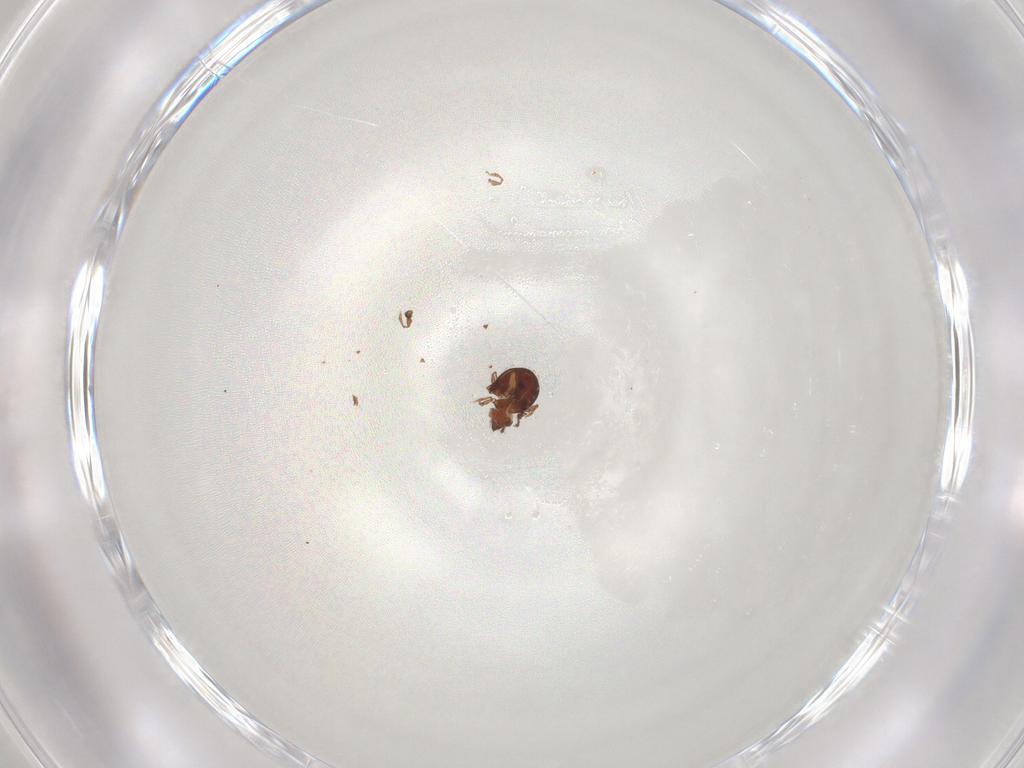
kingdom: Animalia
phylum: Arthropoda
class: Arachnida
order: Sarcoptiformes
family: Scheloribatidae
